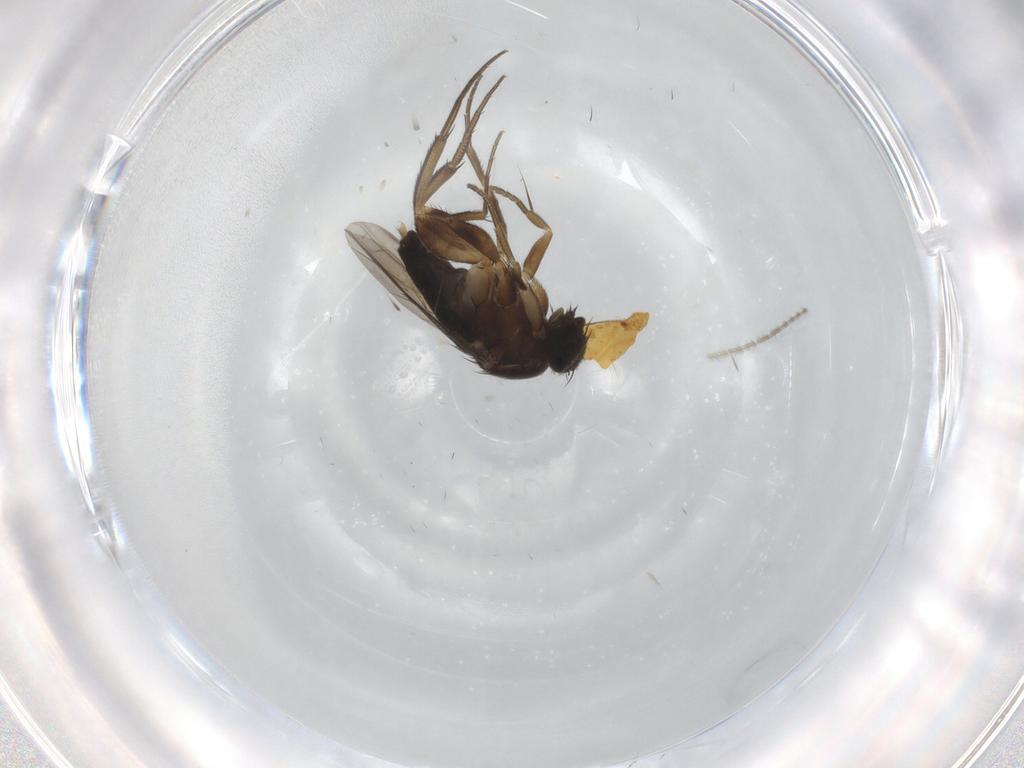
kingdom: Animalia
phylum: Arthropoda
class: Insecta
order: Diptera
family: Phoridae
